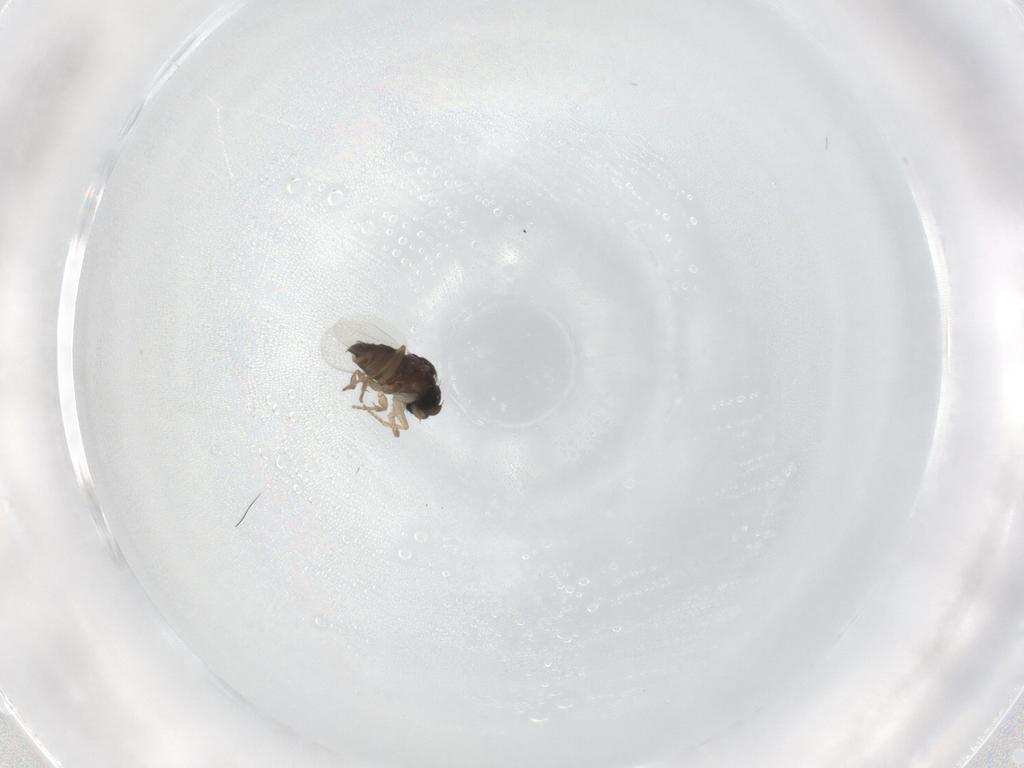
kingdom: Animalia
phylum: Arthropoda
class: Insecta
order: Diptera
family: Phoridae
